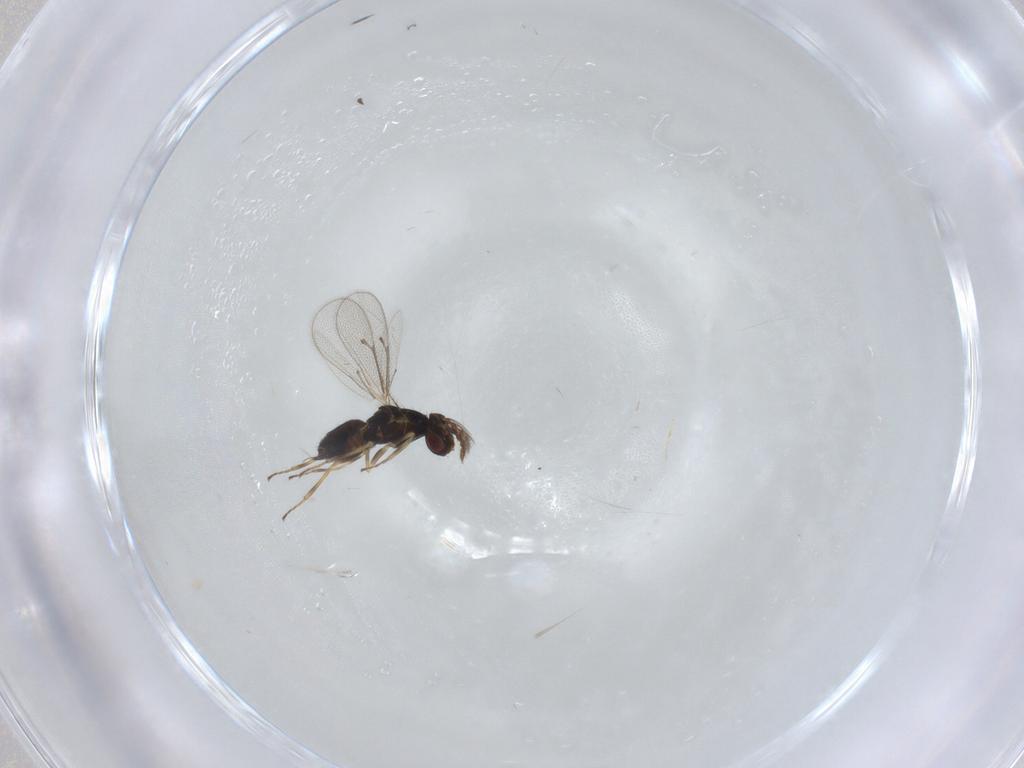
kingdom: Animalia
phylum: Arthropoda
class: Insecta
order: Hymenoptera
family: Eulophidae
